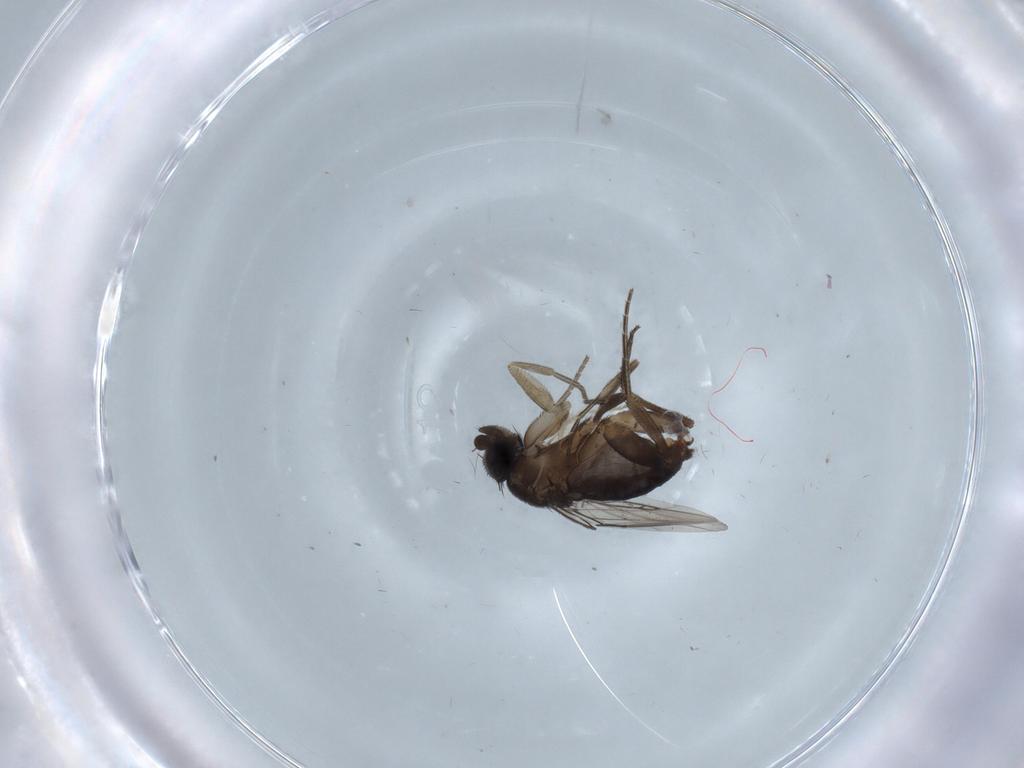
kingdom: Animalia
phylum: Arthropoda
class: Insecta
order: Diptera
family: Phoridae
